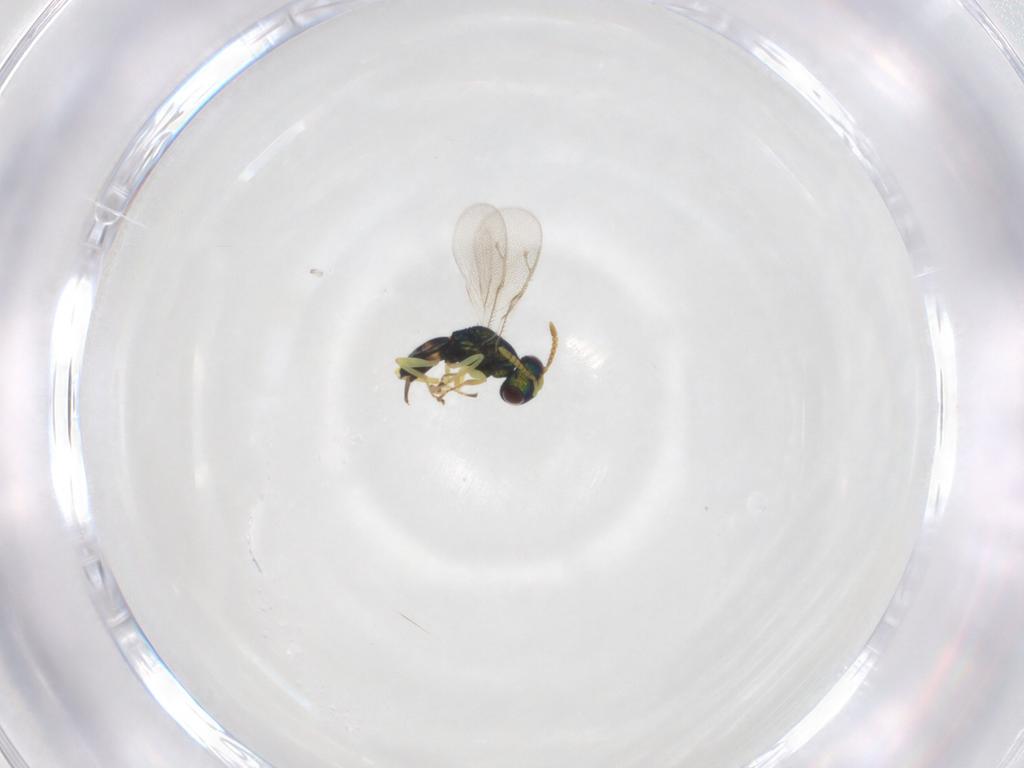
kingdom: Animalia
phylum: Arthropoda
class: Insecta
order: Hymenoptera
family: Pteromalidae
